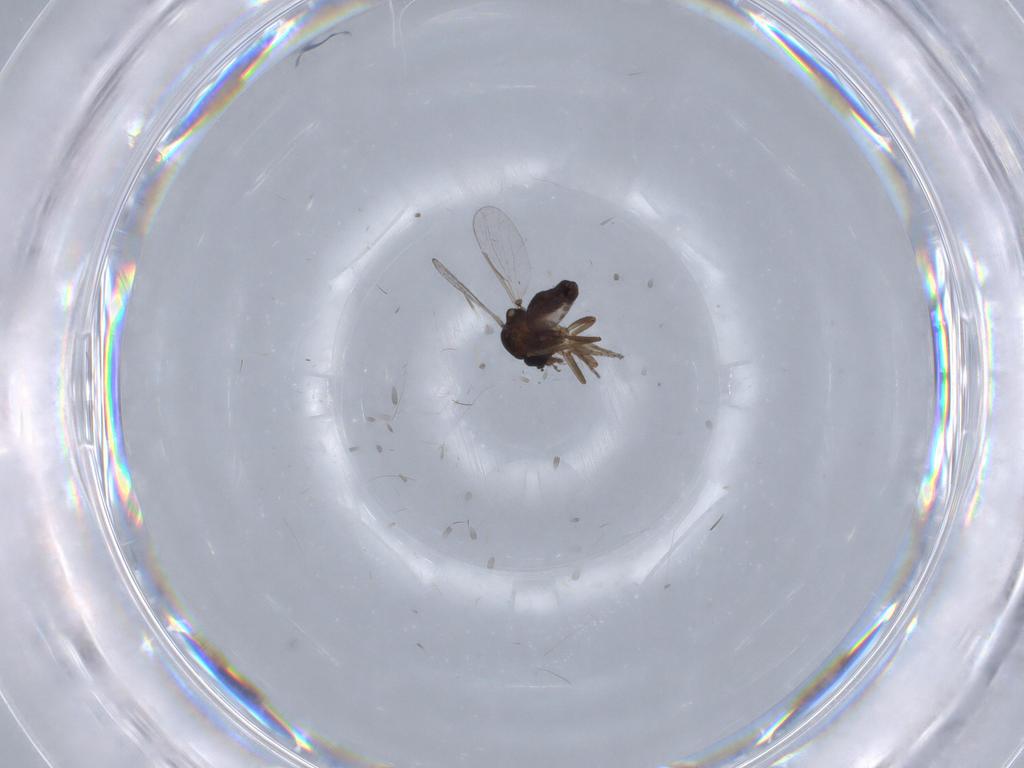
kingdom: Animalia
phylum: Arthropoda
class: Insecta
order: Diptera
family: Ceratopogonidae
